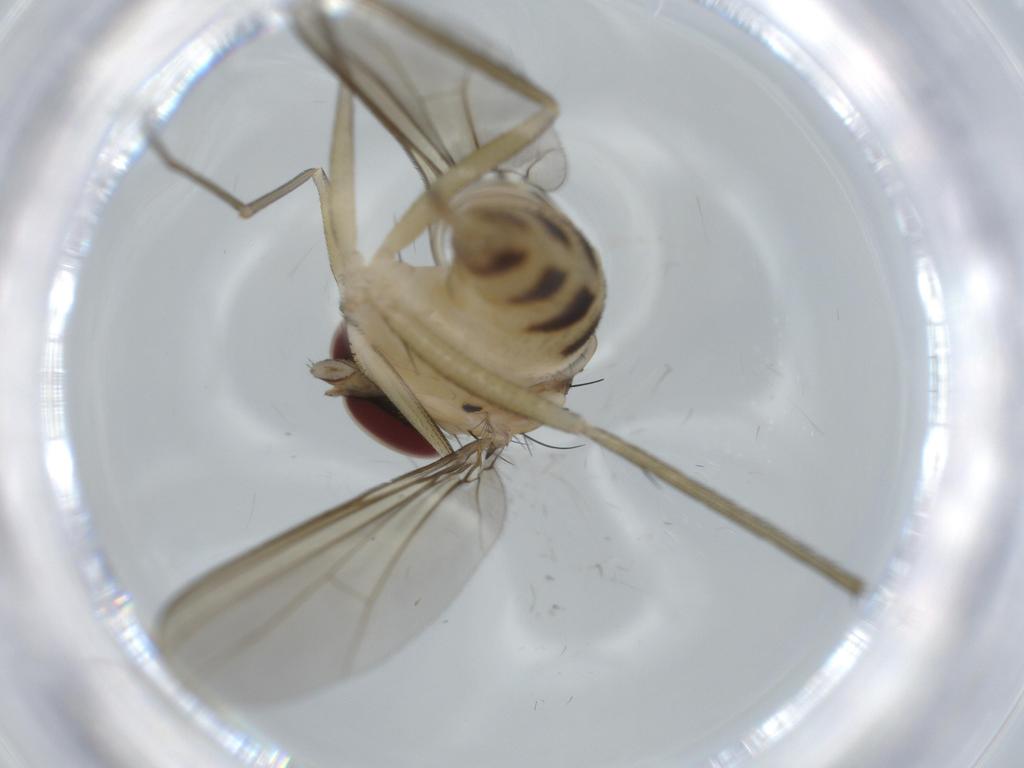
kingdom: Animalia
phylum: Arthropoda
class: Insecta
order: Diptera
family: Dolichopodidae
